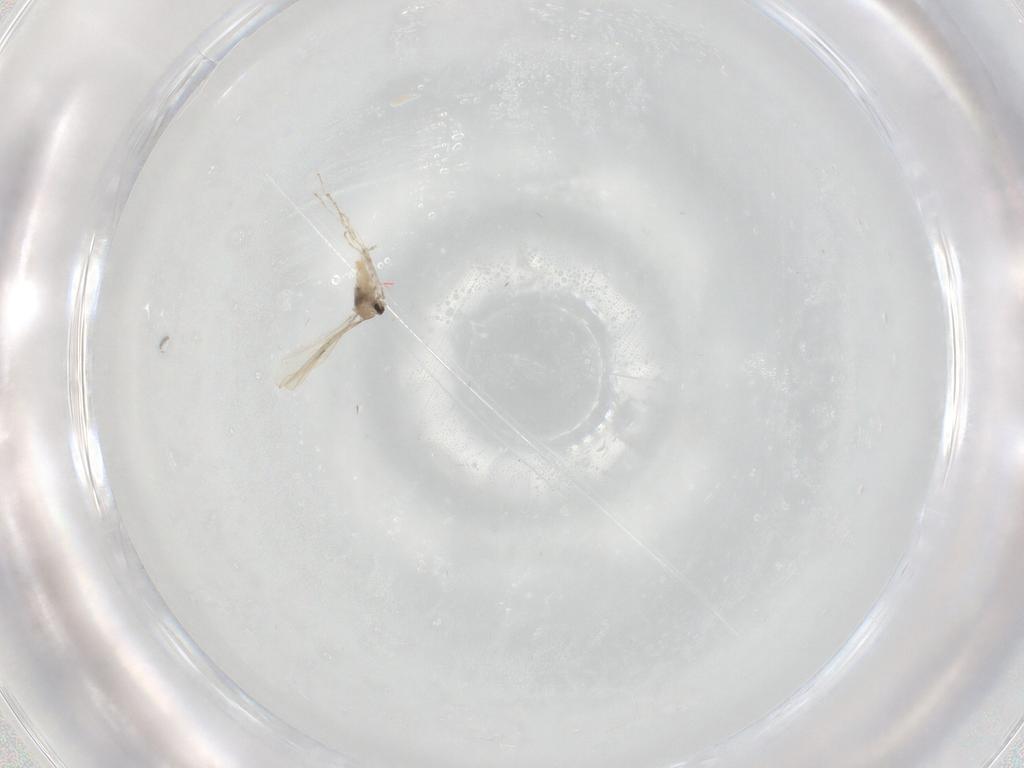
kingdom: Animalia
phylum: Arthropoda
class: Insecta
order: Diptera
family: Cecidomyiidae
